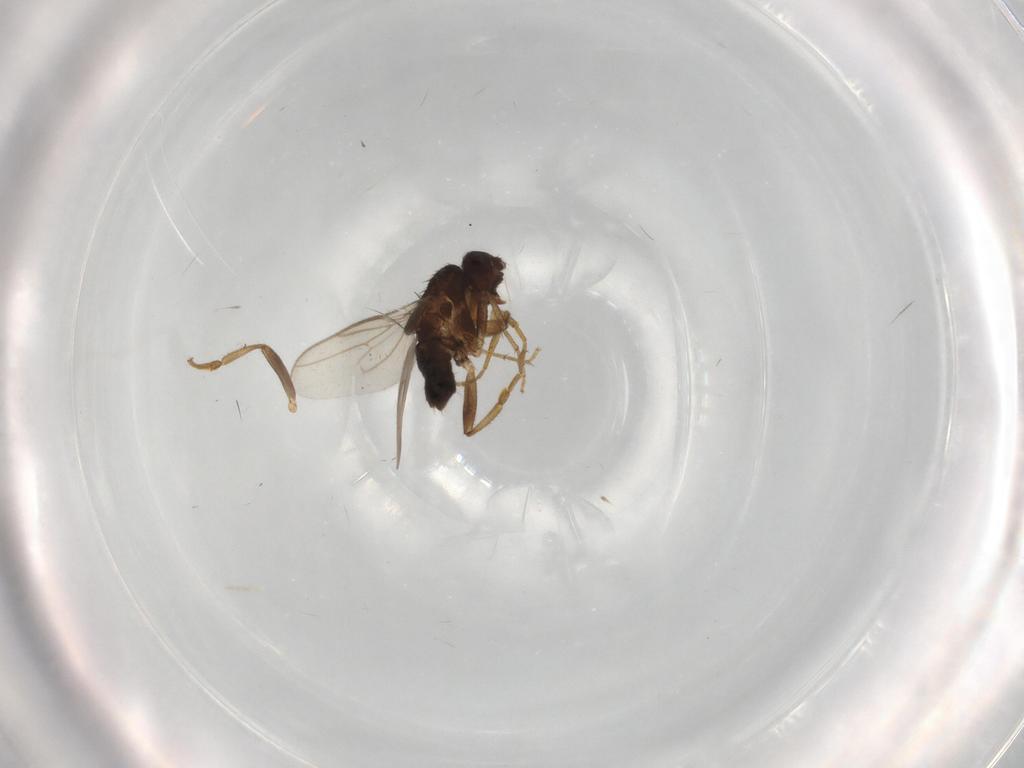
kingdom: Animalia
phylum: Arthropoda
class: Insecta
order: Diptera
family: Sphaeroceridae
